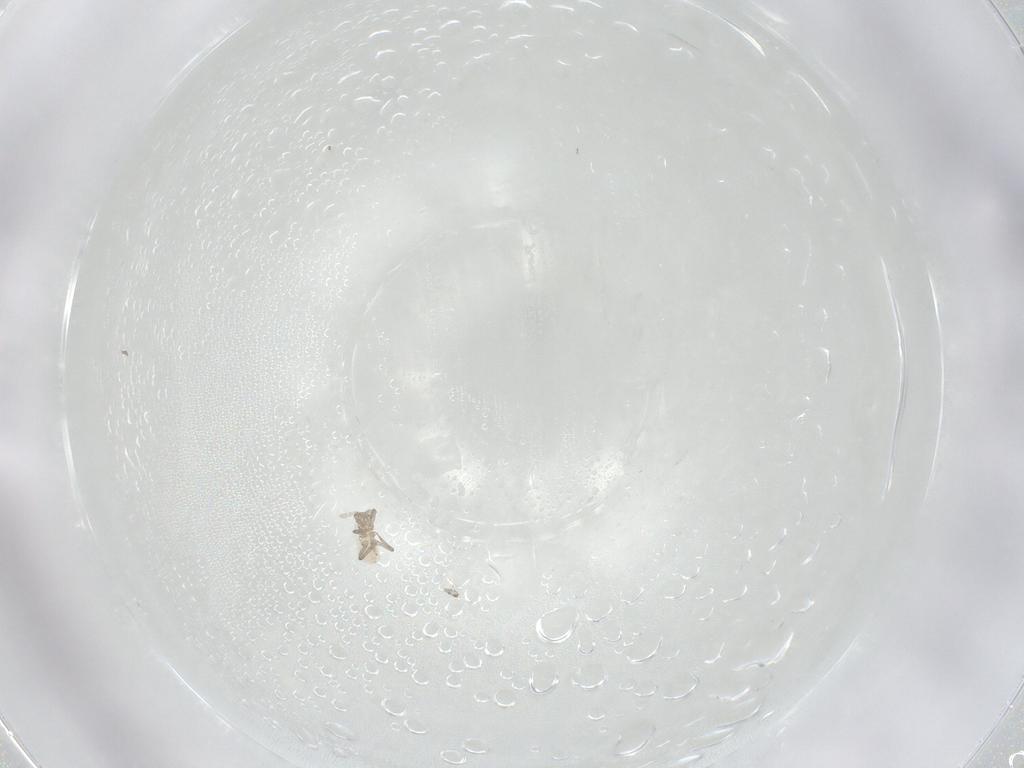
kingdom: Animalia
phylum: Arthropoda
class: Insecta
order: Hemiptera
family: Aphididae
